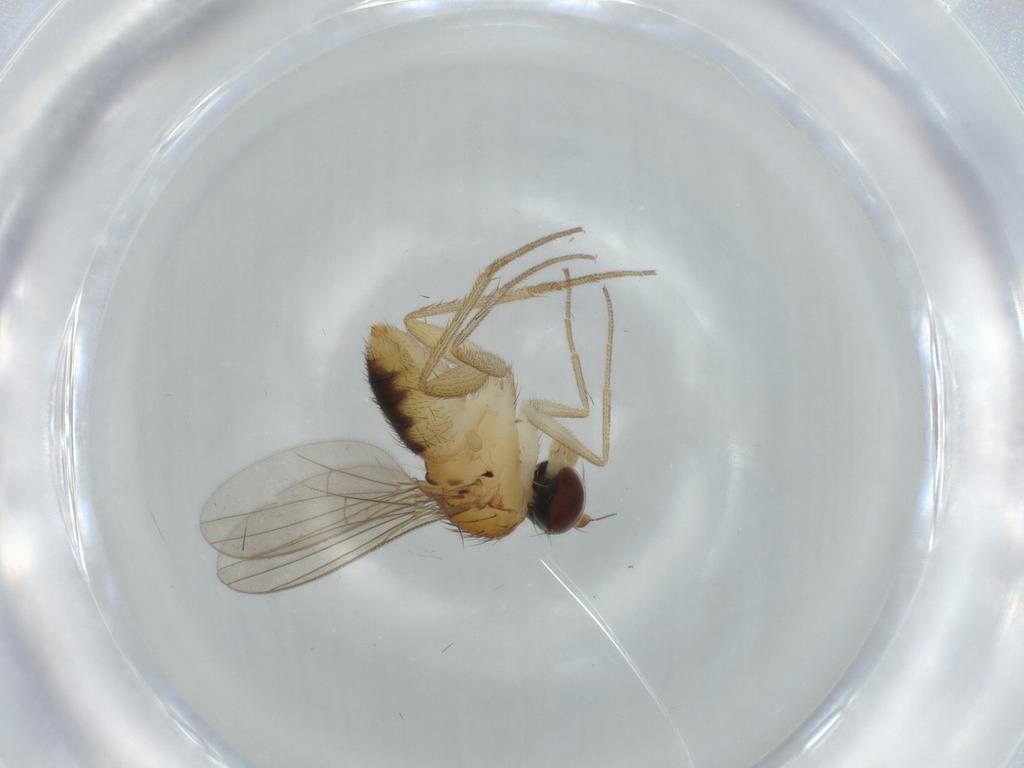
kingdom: Animalia
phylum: Arthropoda
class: Insecta
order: Diptera
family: Dolichopodidae
